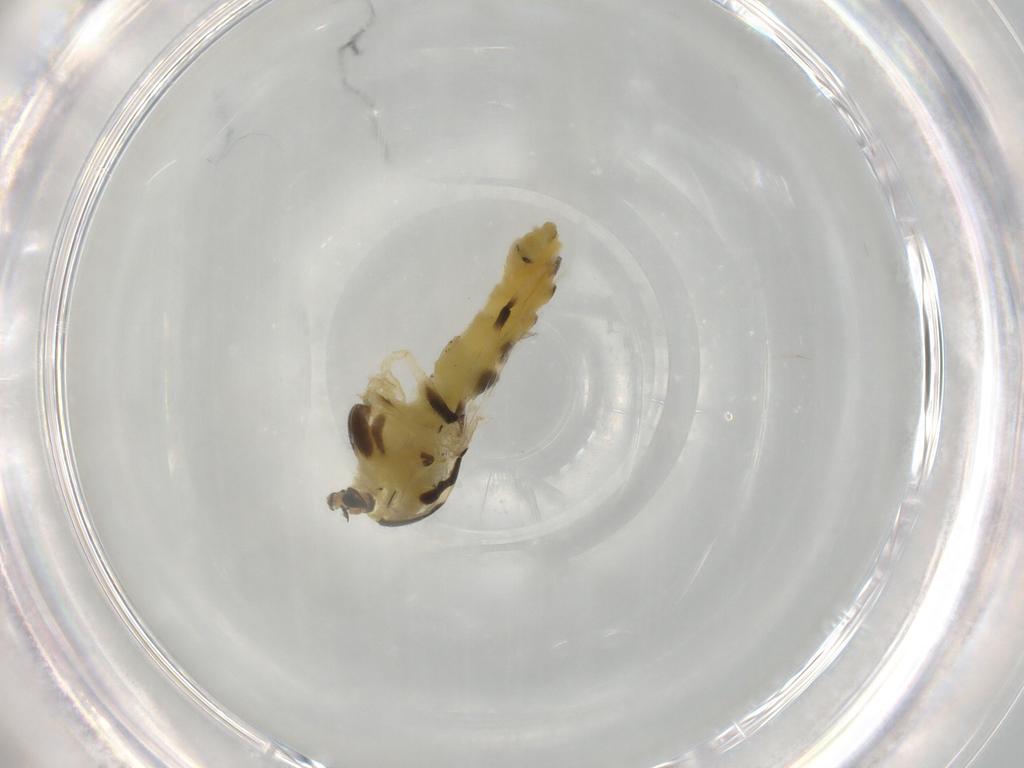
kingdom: Animalia
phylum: Arthropoda
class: Insecta
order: Diptera
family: Chironomidae
